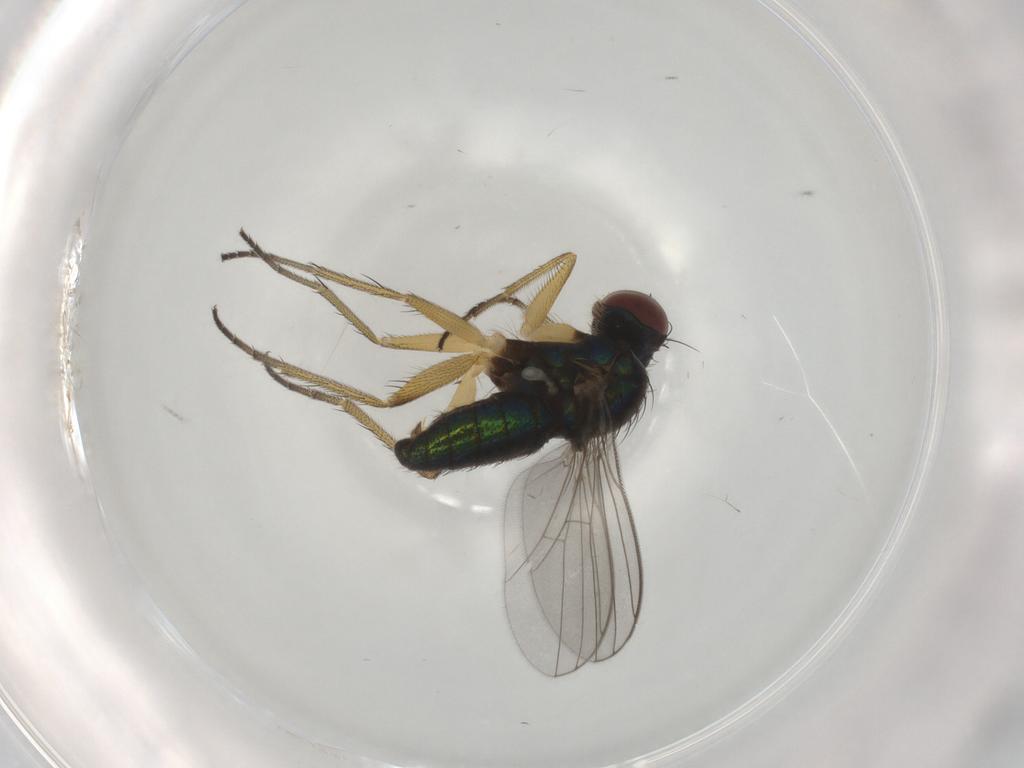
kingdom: Animalia
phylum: Arthropoda
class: Insecta
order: Diptera
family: Dolichopodidae
